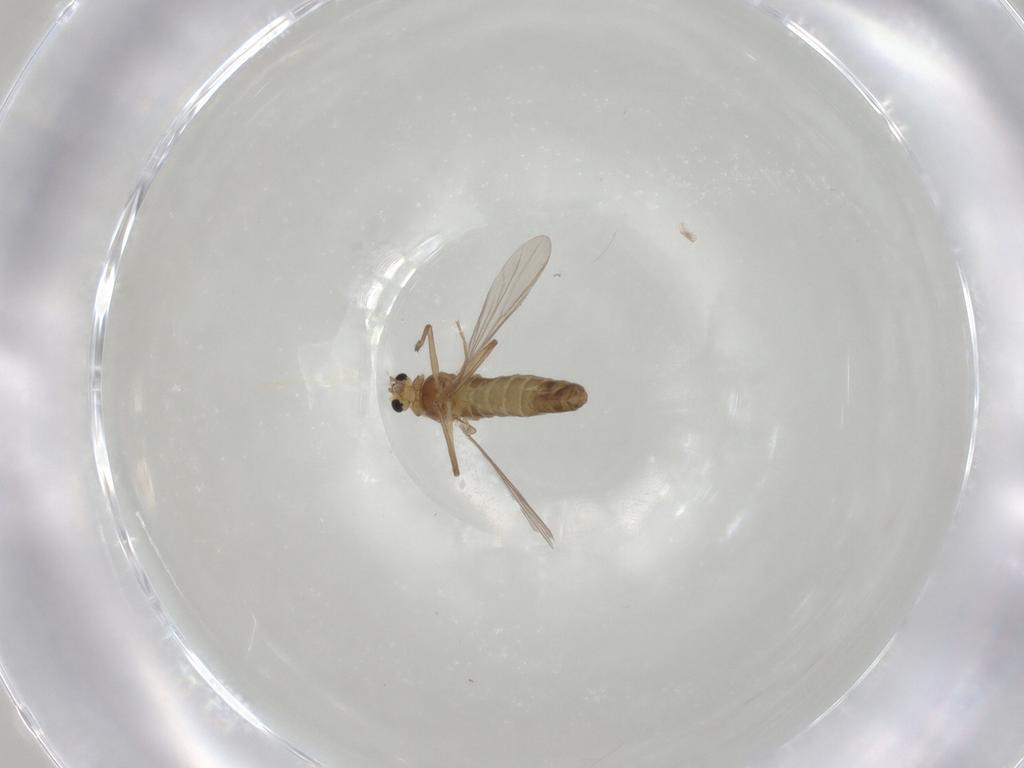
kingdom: Animalia
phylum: Arthropoda
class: Insecta
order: Diptera
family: Chironomidae
